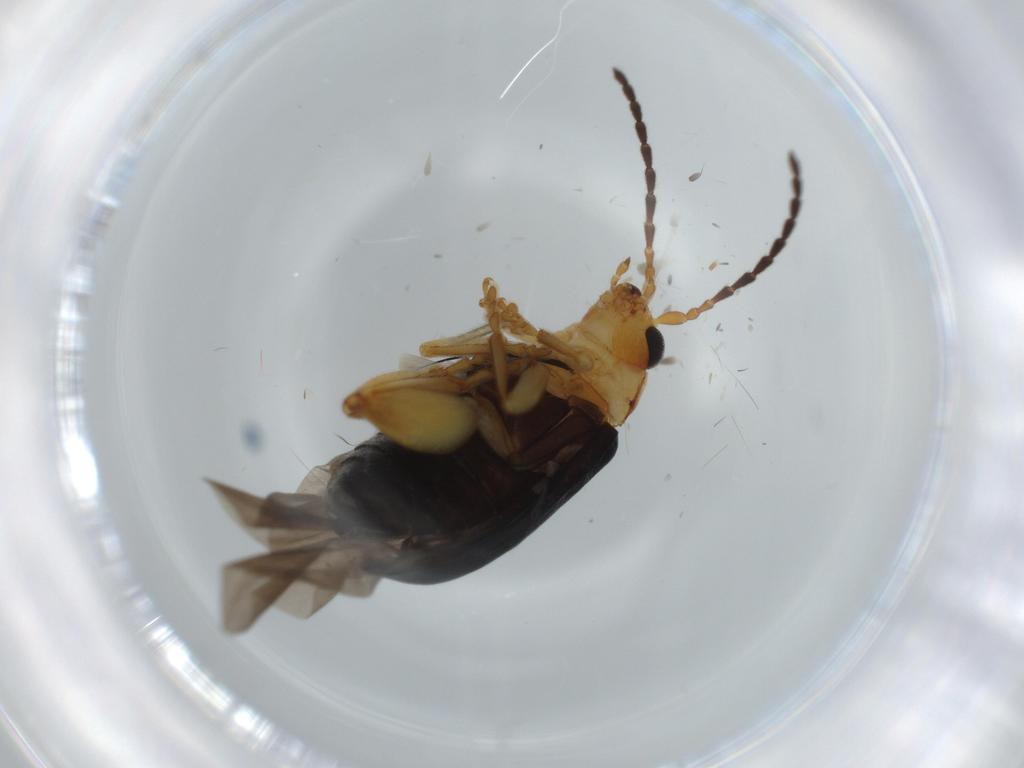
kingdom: Animalia
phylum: Arthropoda
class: Insecta
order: Coleoptera
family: Chrysomelidae
